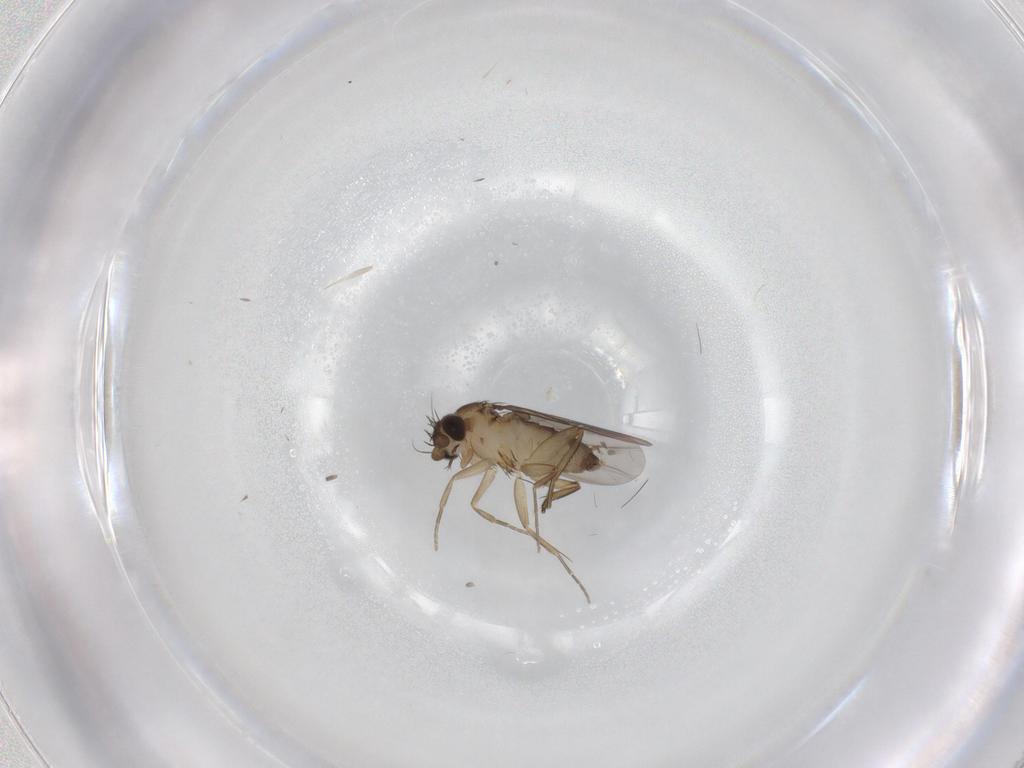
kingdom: Animalia
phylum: Arthropoda
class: Insecta
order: Diptera
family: Phoridae
